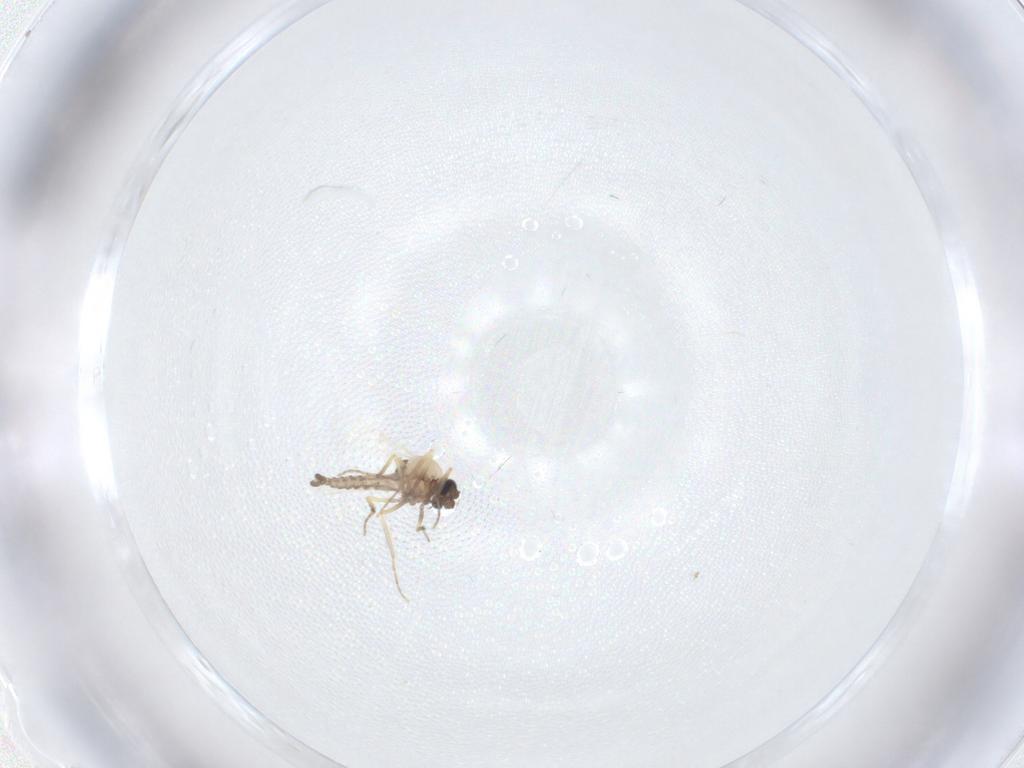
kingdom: Animalia
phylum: Arthropoda
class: Insecta
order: Diptera
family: Ceratopogonidae
